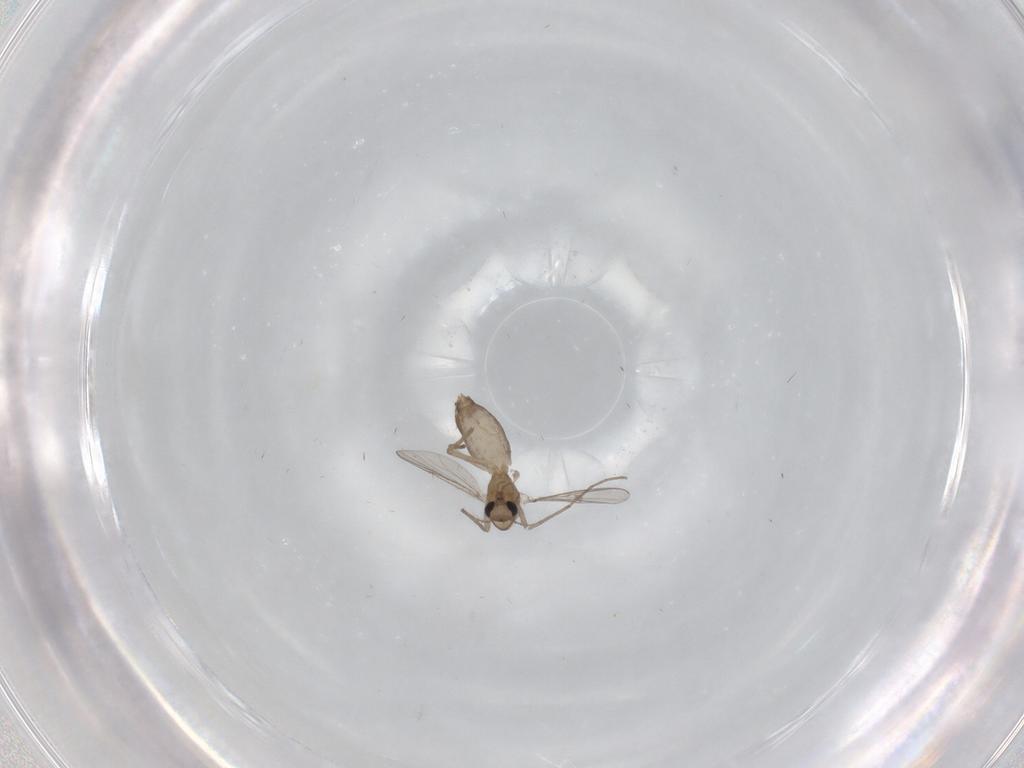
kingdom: Animalia
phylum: Arthropoda
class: Insecta
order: Diptera
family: Chironomidae
